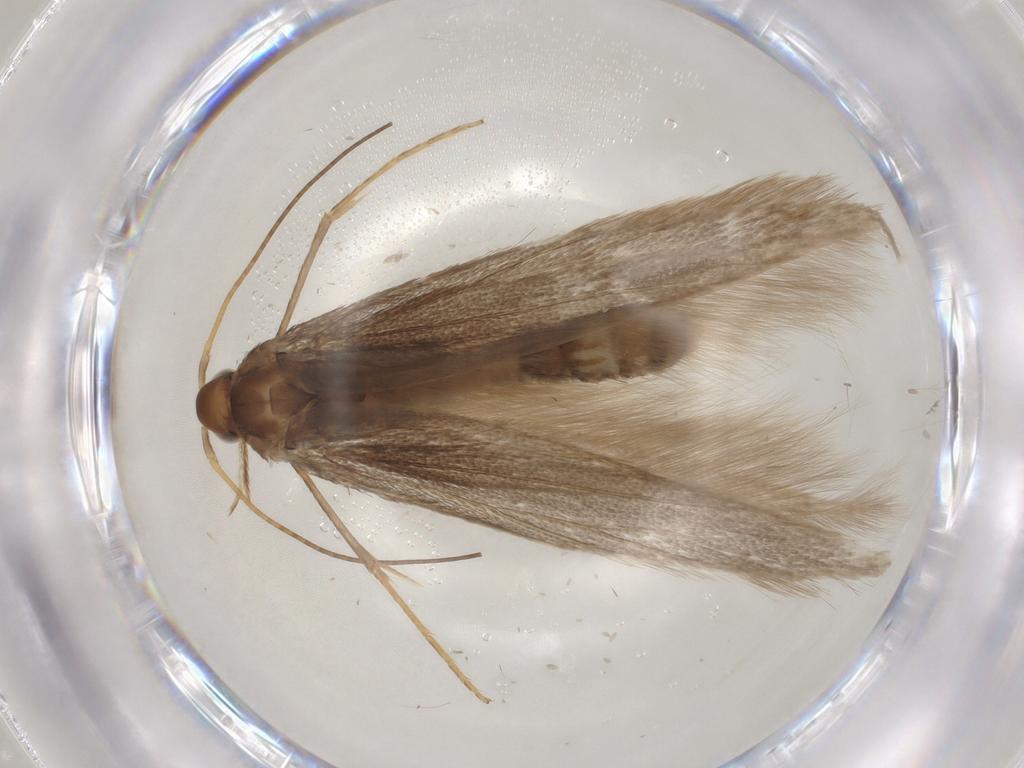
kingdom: Animalia
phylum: Arthropoda
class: Insecta
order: Lepidoptera
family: Coleophoridae
